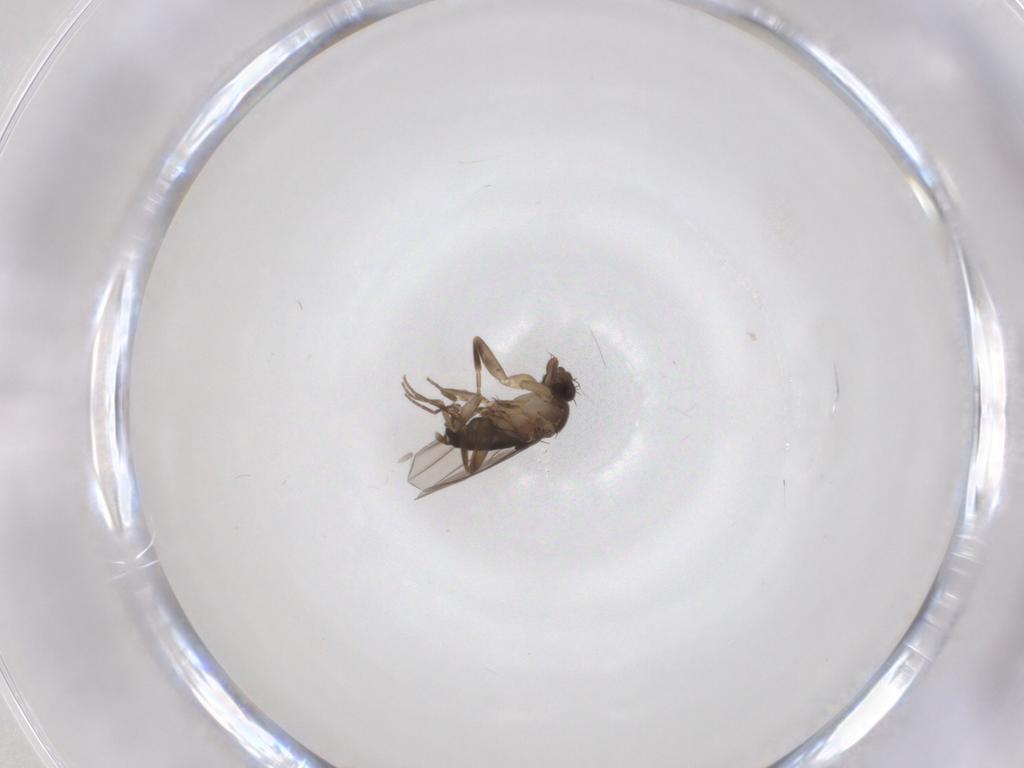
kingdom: Animalia
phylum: Arthropoda
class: Insecta
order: Diptera
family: Phoridae
